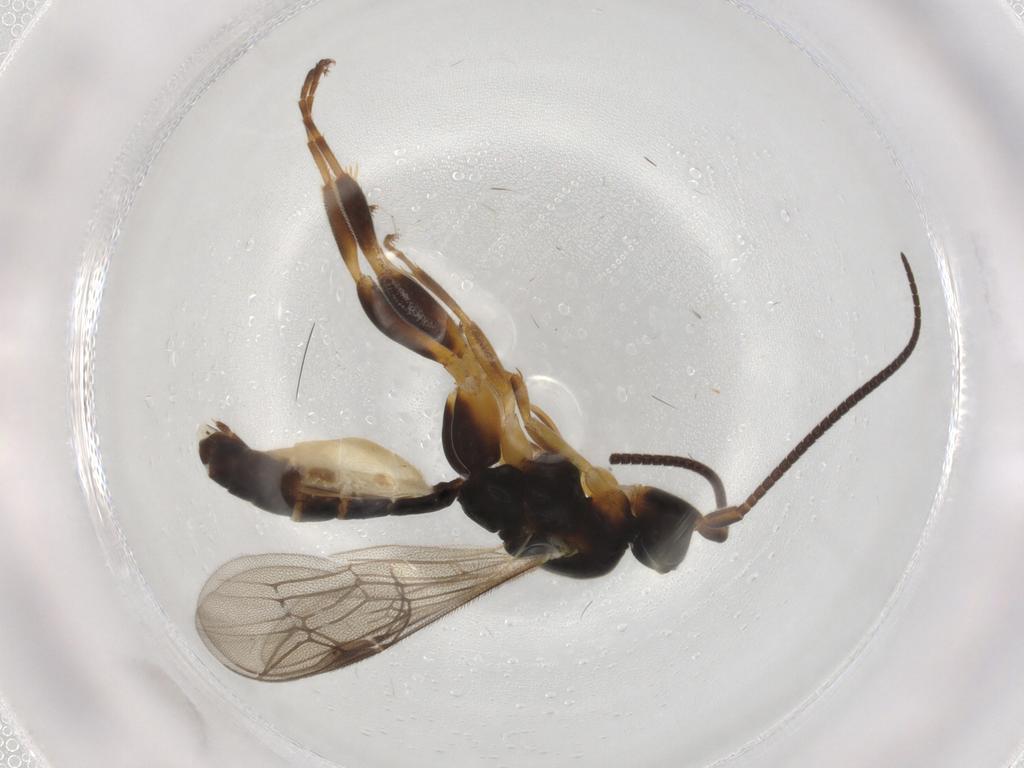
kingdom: Animalia
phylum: Arthropoda
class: Insecta
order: Hymenoptera
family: Ichneumonidae
